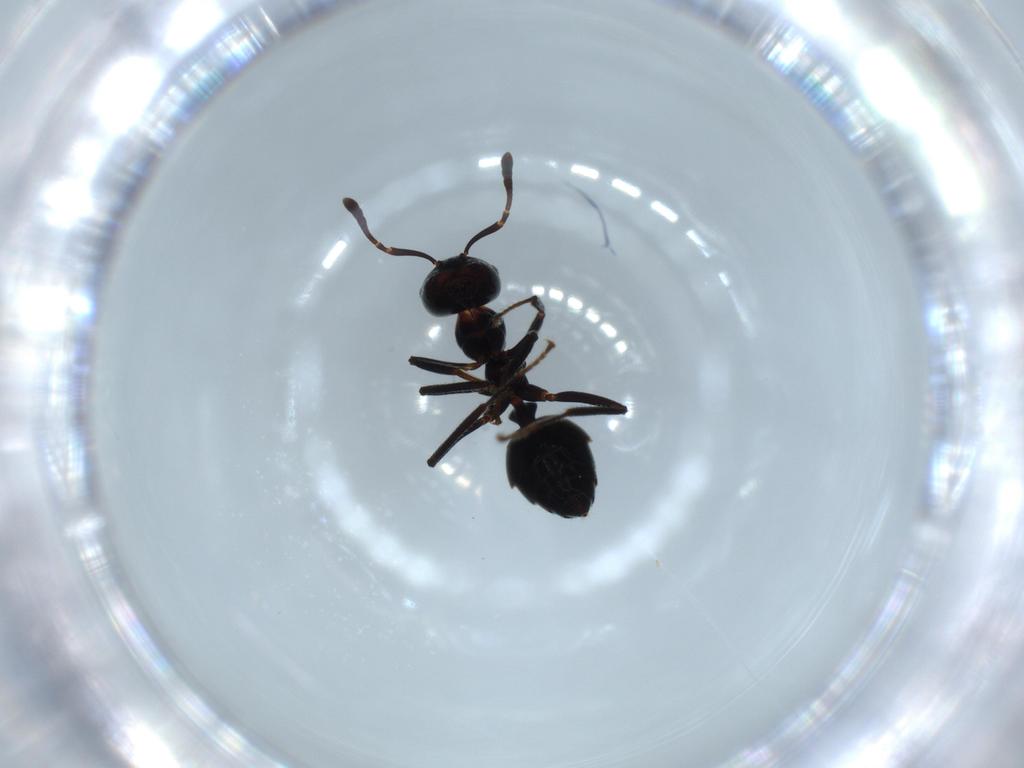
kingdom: Animalia
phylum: Arthropoda
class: Insecta
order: Hymenoptera
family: Formicidae
